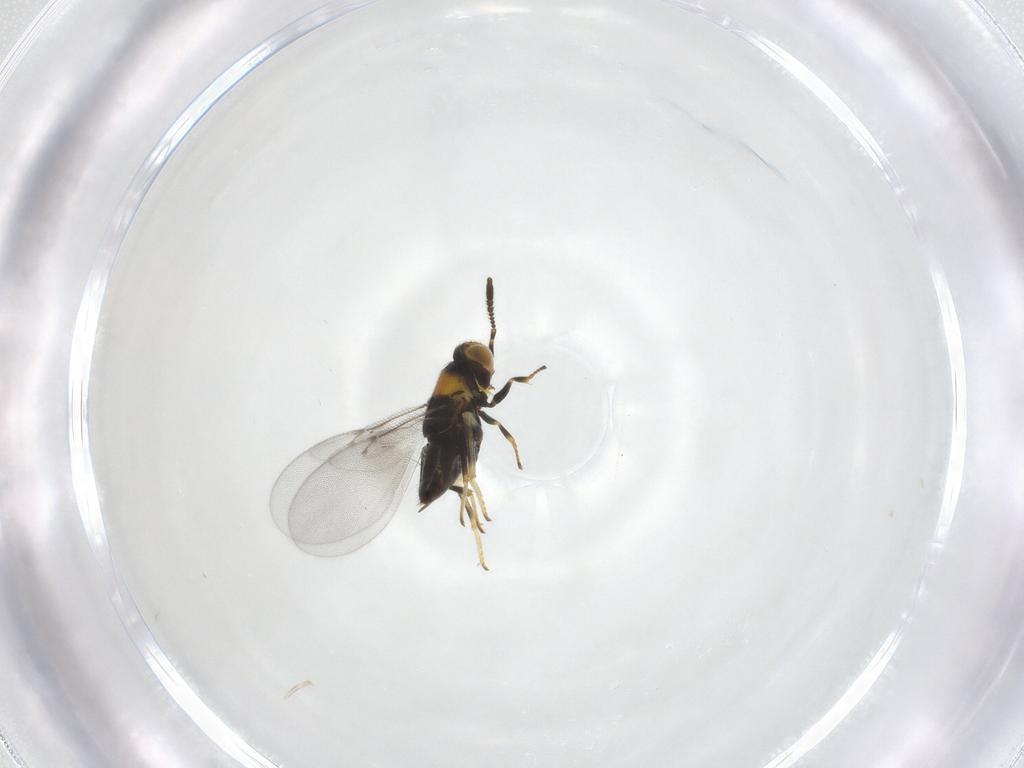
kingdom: Animalia
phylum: Arthropoda
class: Insecta
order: Hymenoptera
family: Encyrtidae
